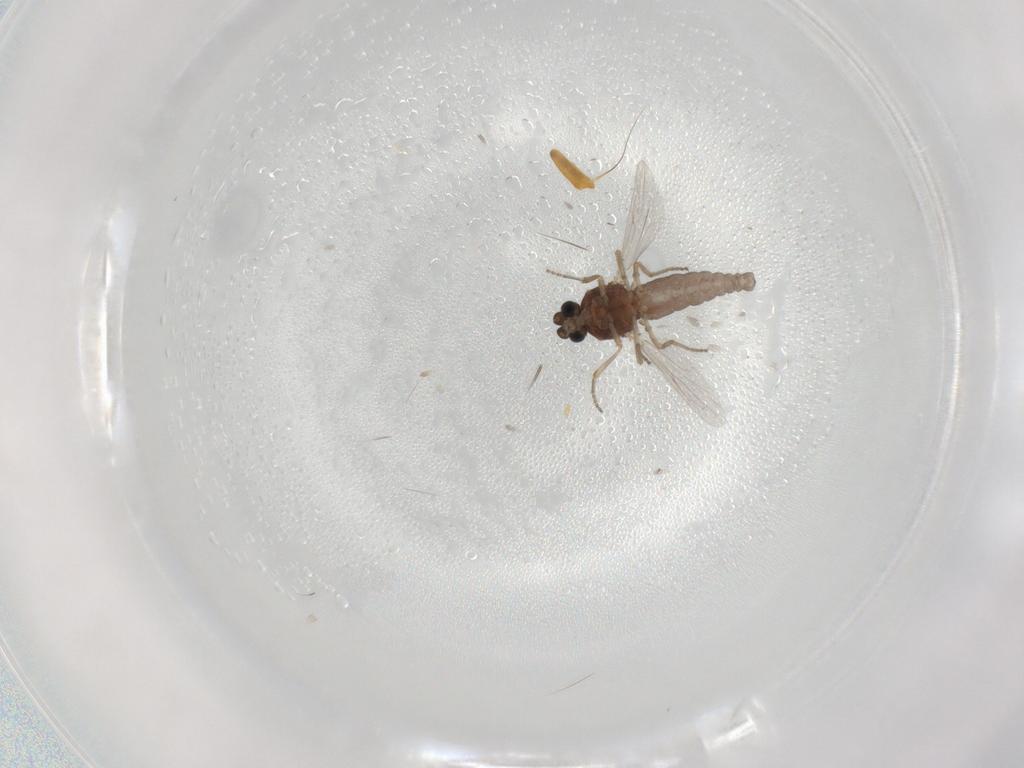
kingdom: Animalia
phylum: Arthropoda
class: Insecta
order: Diptera
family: Ceratopogonidae
